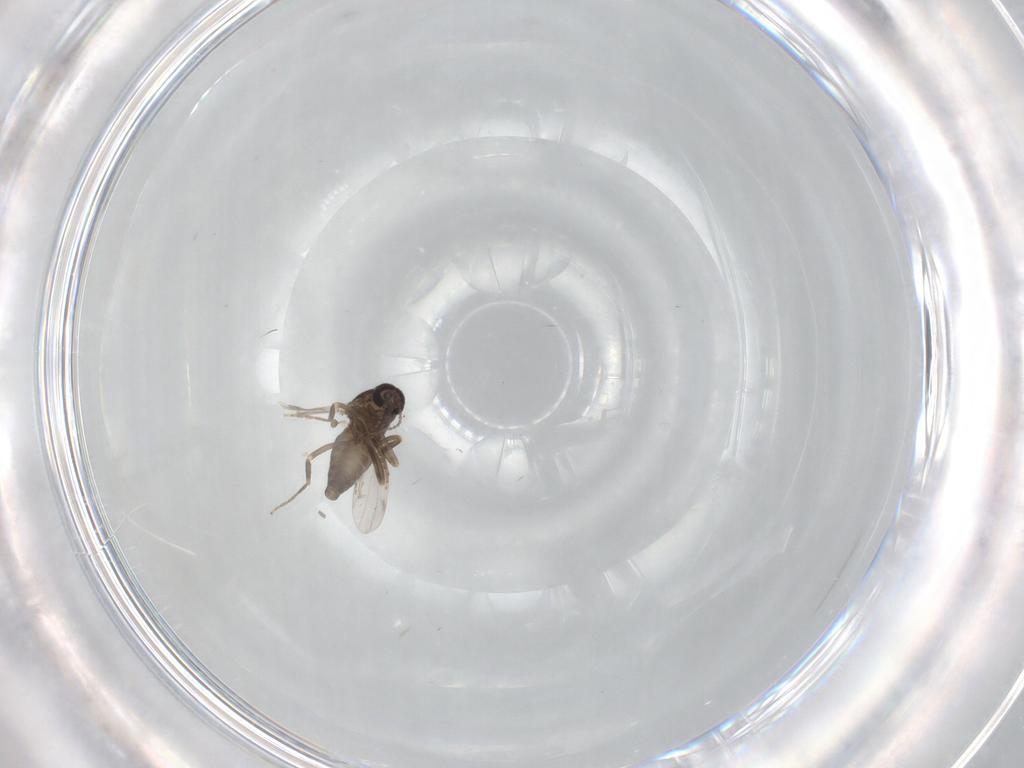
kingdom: Animalia
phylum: Arthropoda
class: Insecta
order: Diptera
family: Ceratopogonidae
